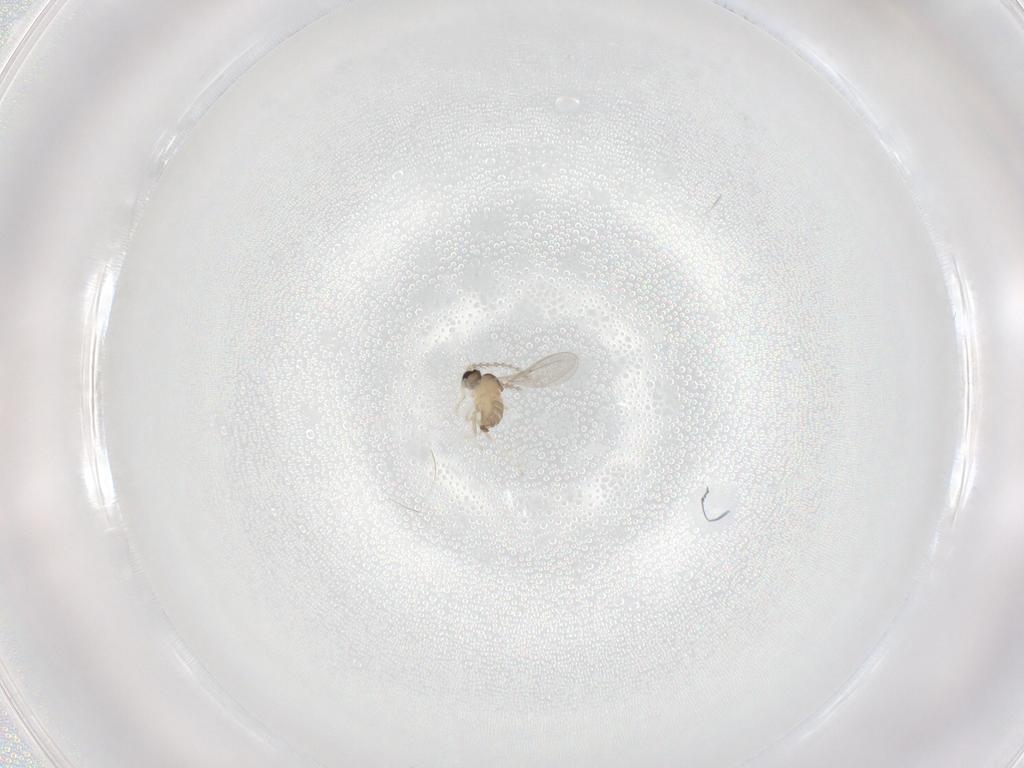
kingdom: Animalia
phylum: Arthropoda
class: Insecta
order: Diptera
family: Cecidomyiidae
